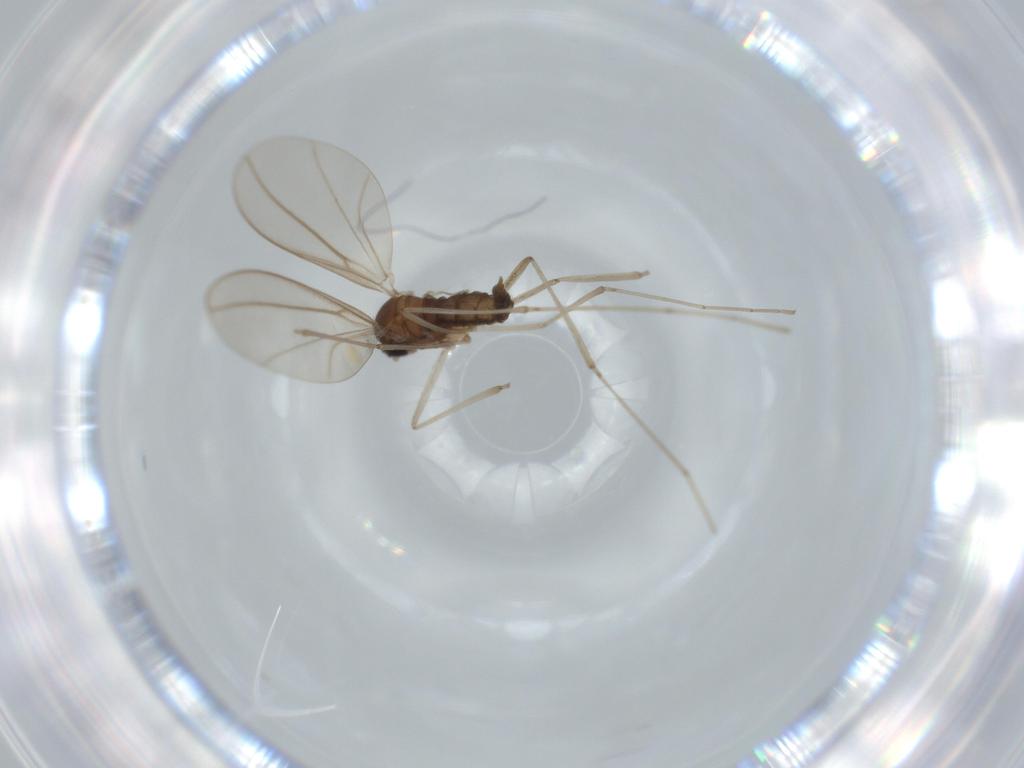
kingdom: Animalia
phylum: Arthropoda
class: Insecta
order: Diptera
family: Cecidomyiidae
